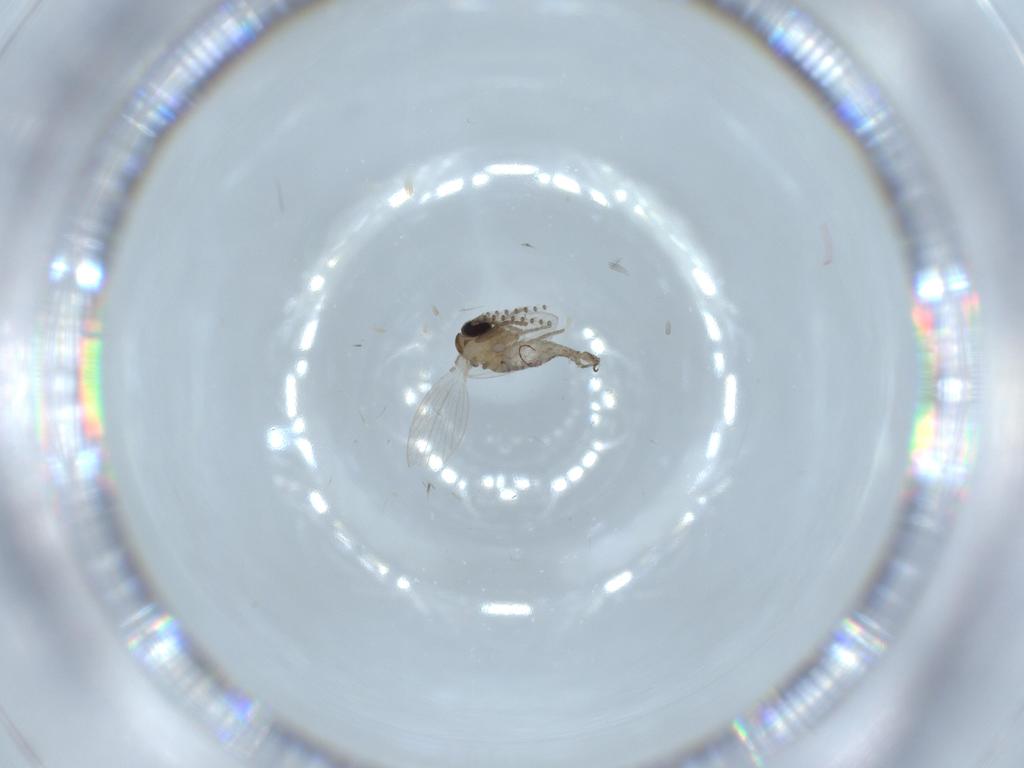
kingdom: Animalia
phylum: Arthropoda
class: Insecta
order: Diptera
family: Psychodidae
